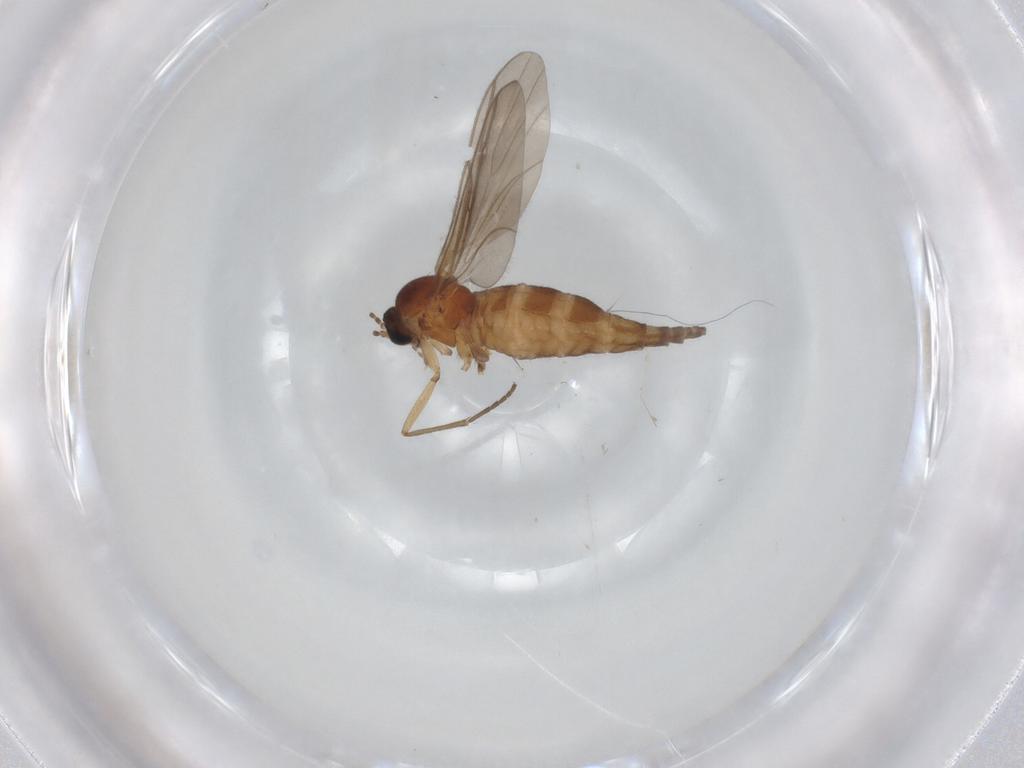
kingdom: Animalia
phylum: Arthropoda
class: Insecta
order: Diptera
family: Sciaridae
